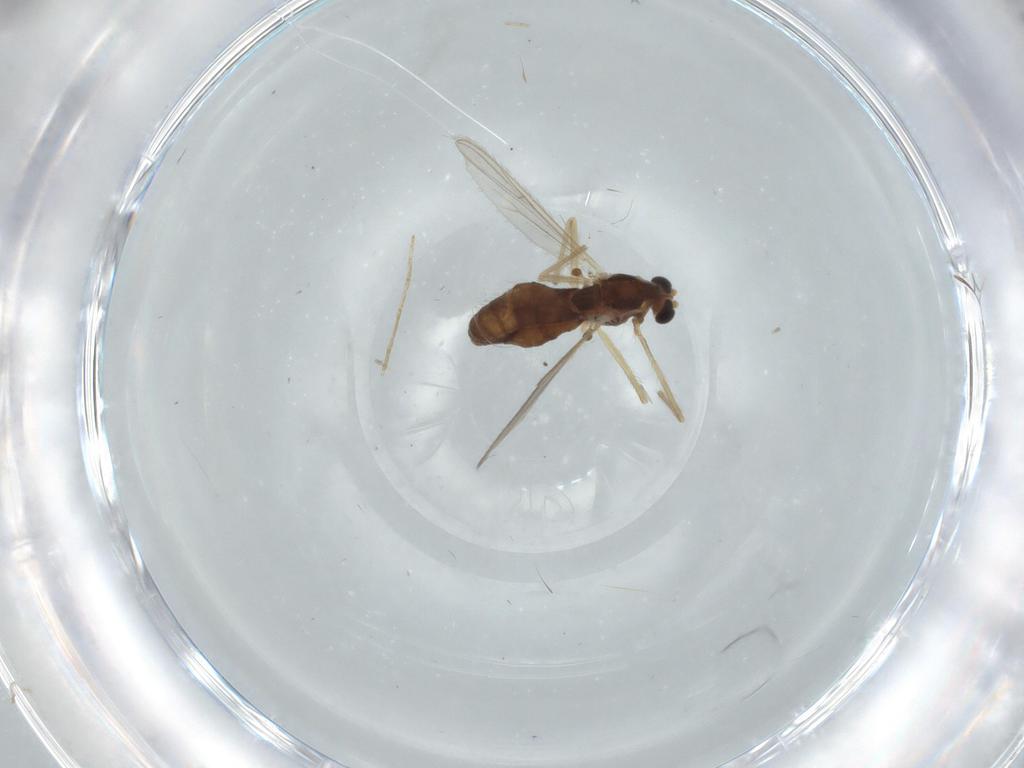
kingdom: Animalia
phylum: Arthropoda
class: Insecta
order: Diptera
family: Chironomidae
